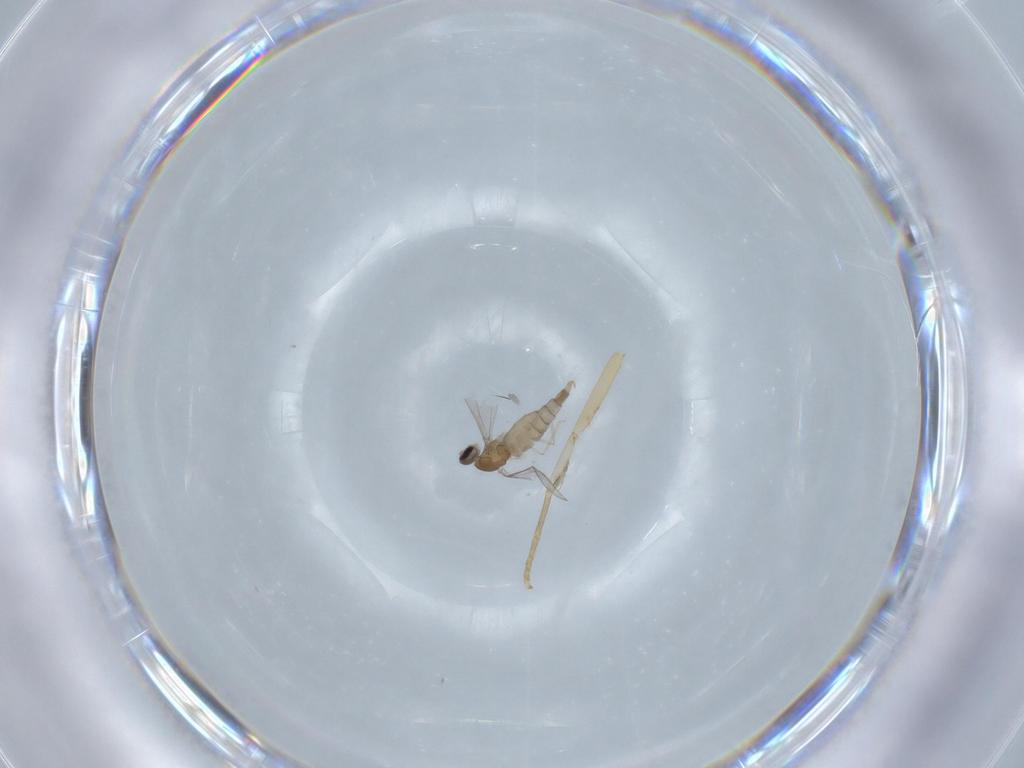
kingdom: Animalia
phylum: Arthropoda
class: Insecta
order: Diptera
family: Cecidomyiidae
